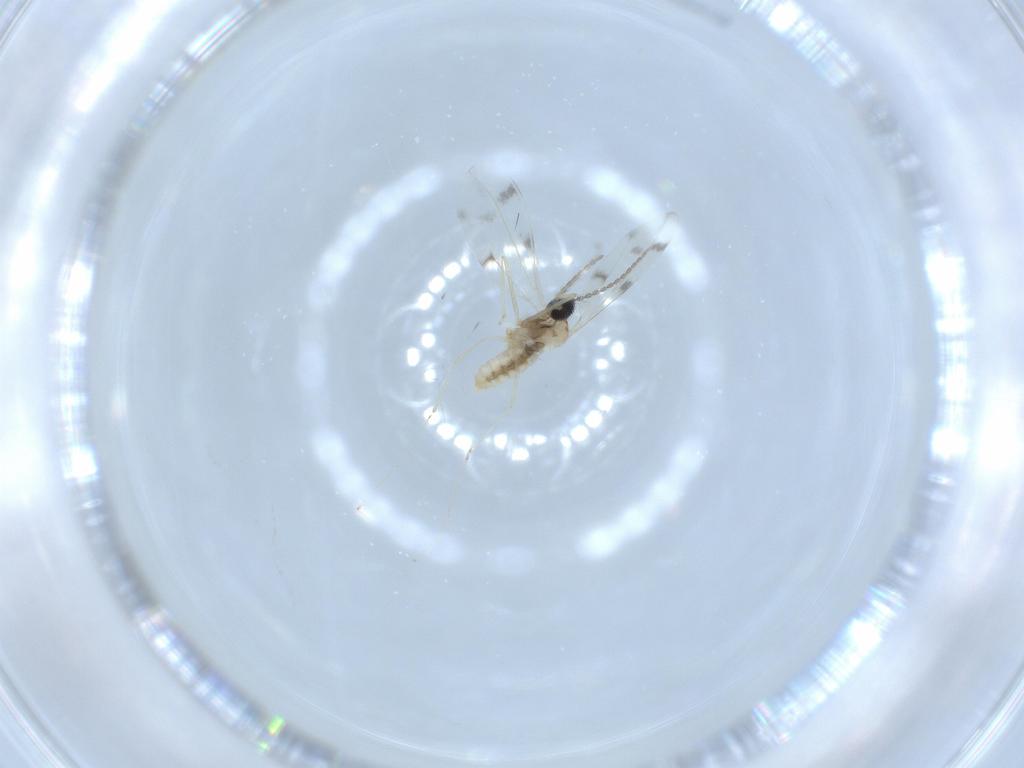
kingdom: Animalia
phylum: Arthropoda
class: Insecta
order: Diptera
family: Cecidomyiidae
